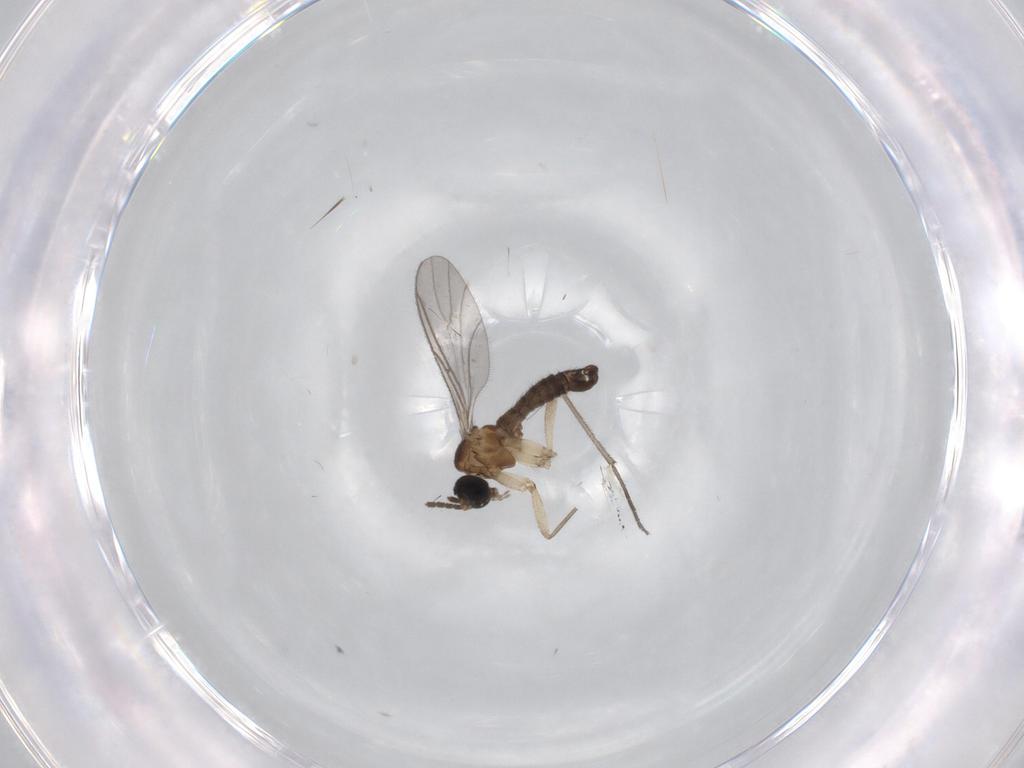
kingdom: Animalia
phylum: Arthropoda
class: Insecta
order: Diptera
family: Sciaridae
